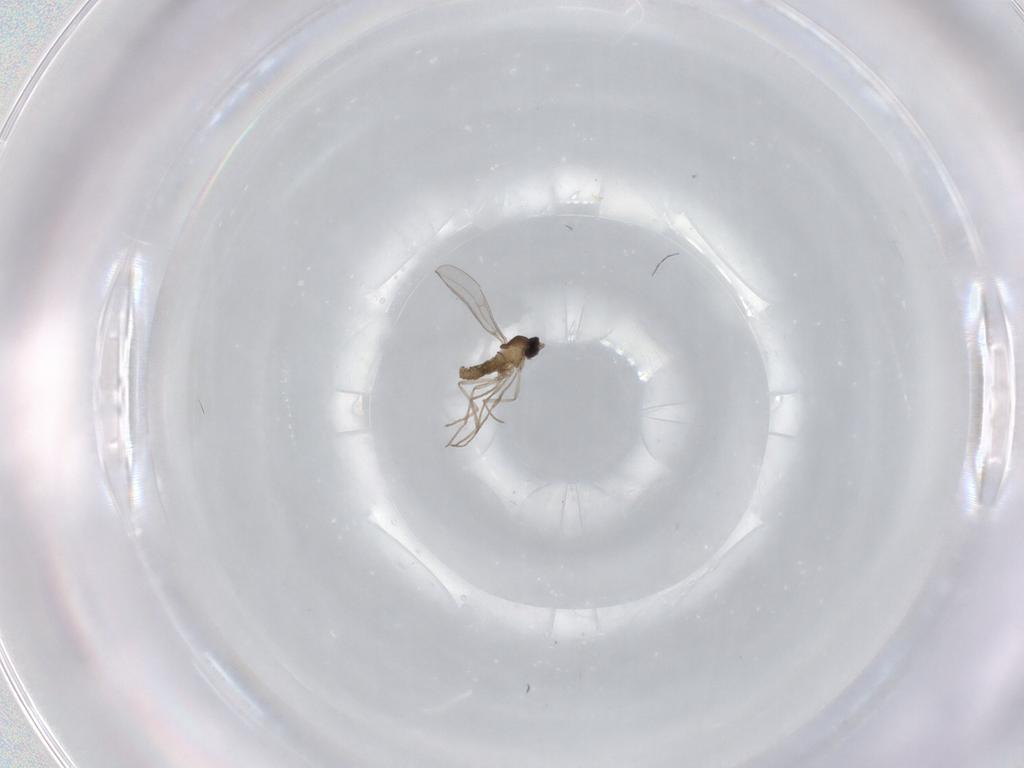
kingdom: Animalia
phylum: Arthropoda
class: Insecta
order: Diptera
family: Cecidomyiidae
